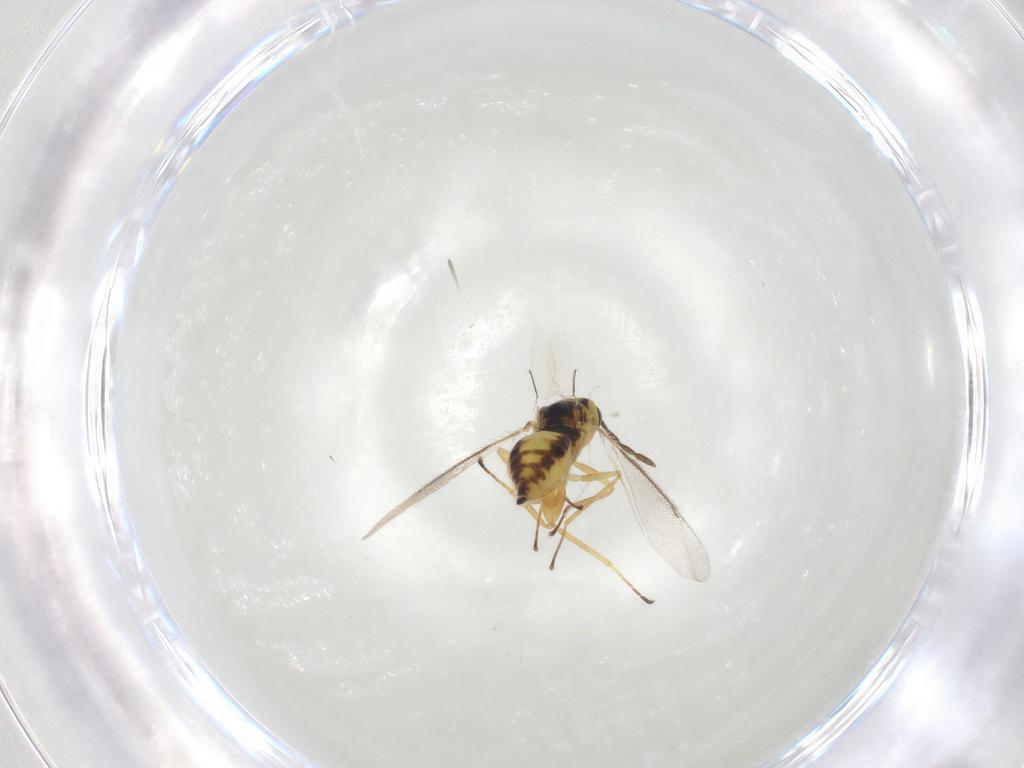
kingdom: Animalia
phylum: Arthropoda
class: Insecta
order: Hymenoptera
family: Eulophidae
